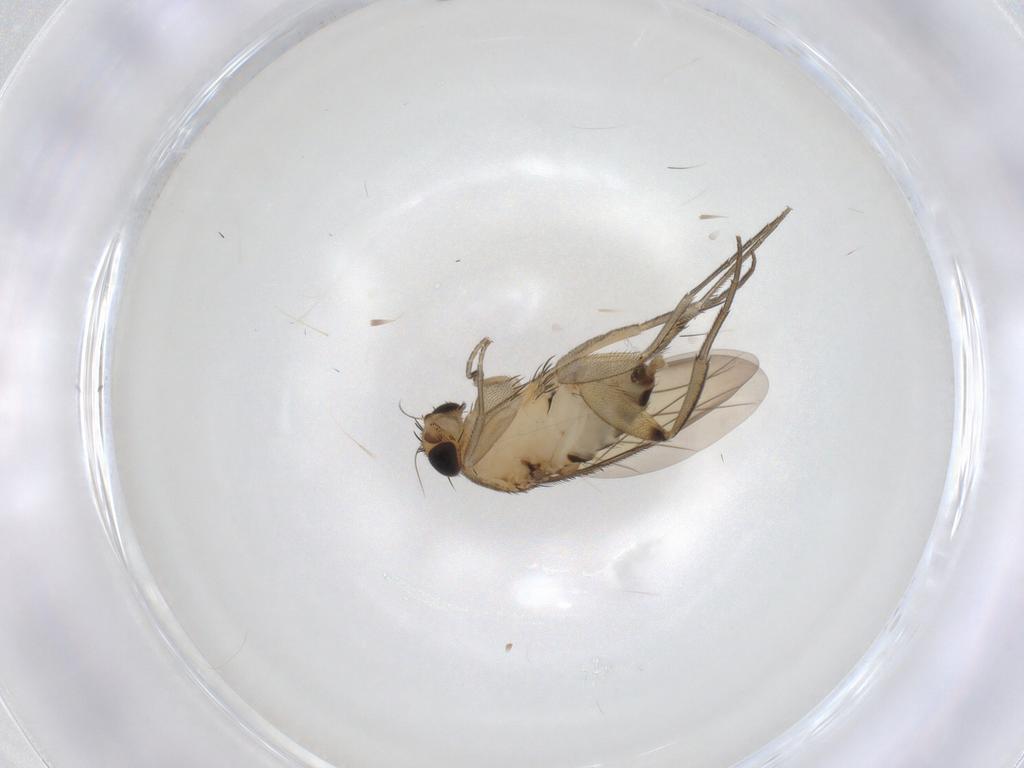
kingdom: Animalia
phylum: Arthropoda
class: Insecta
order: Diptera
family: Phoridae
